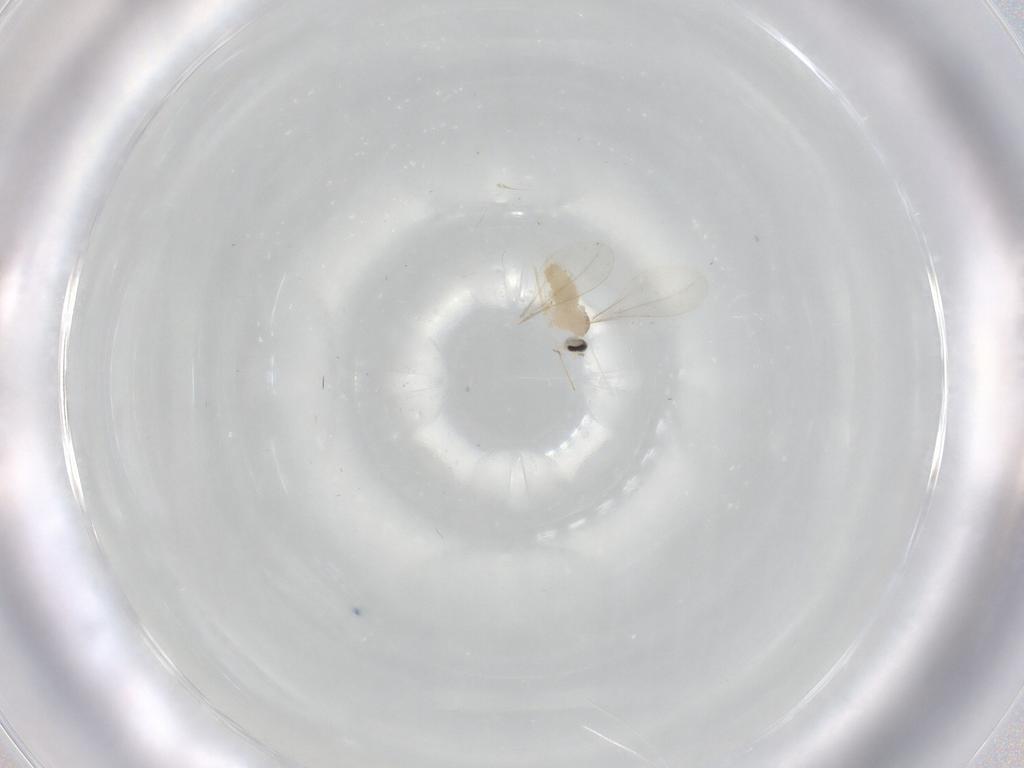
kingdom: Animalia
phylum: Arthropoda
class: Insecta
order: Diptera
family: Cecidomyiidae
